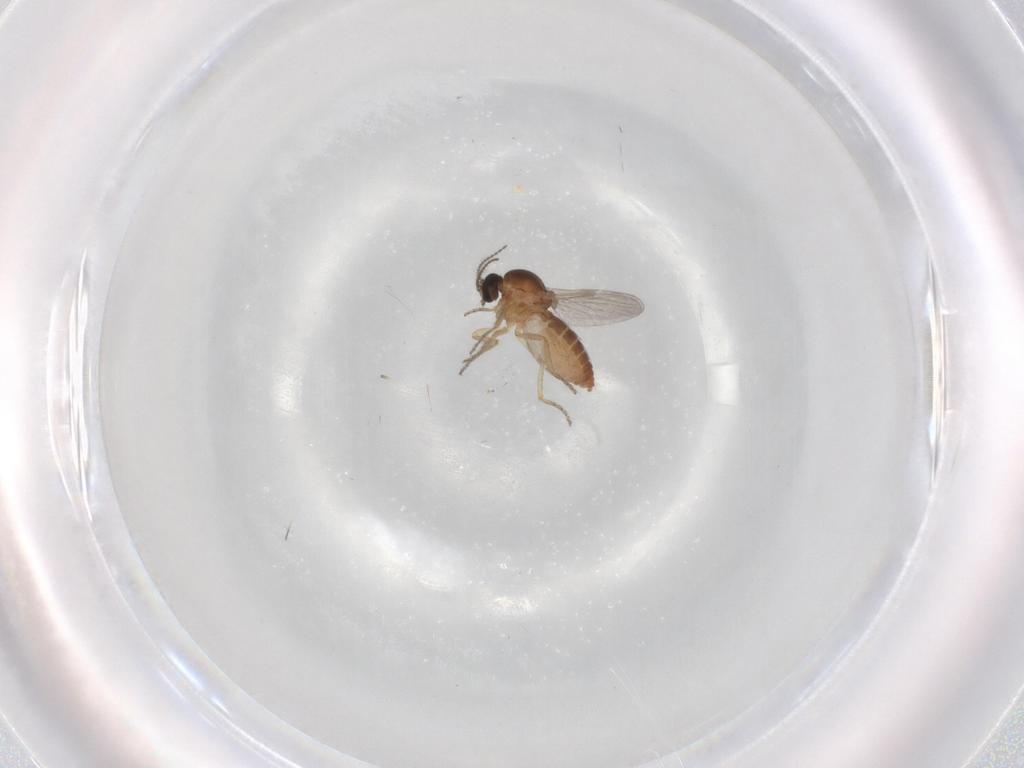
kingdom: Animalia
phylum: Arthropoda
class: Insecta
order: Diptera
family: Ceratopogonidae
